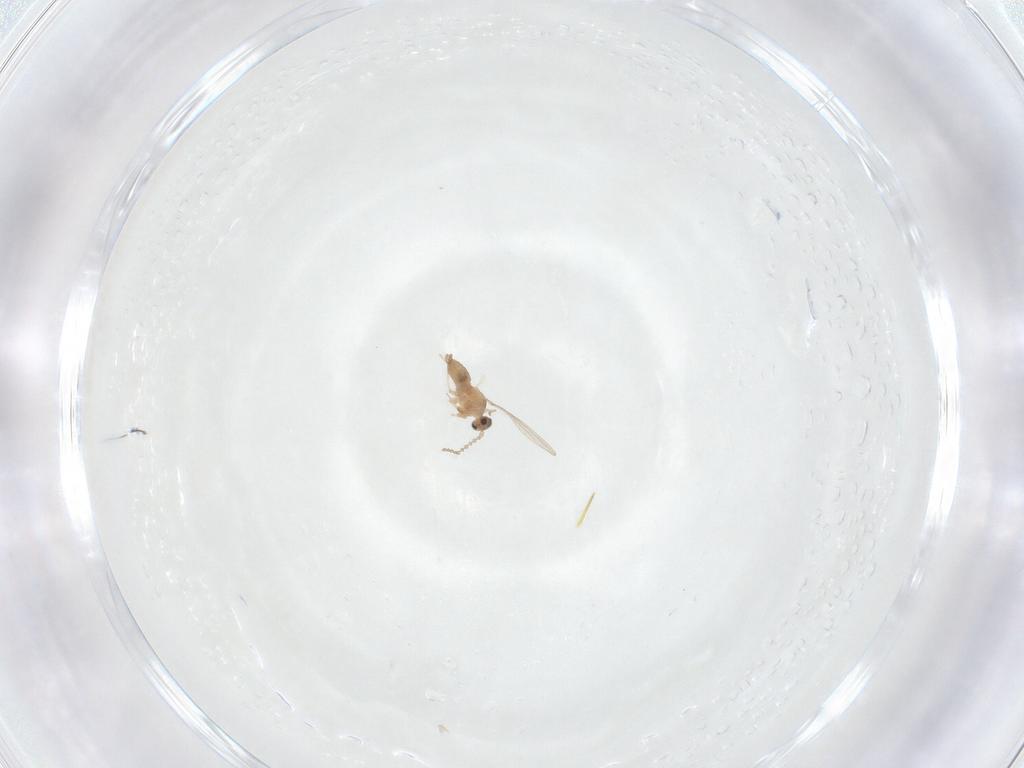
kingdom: Animalia
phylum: Arthropoda
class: Insecta
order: Diptera
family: Cecidomyiidae
